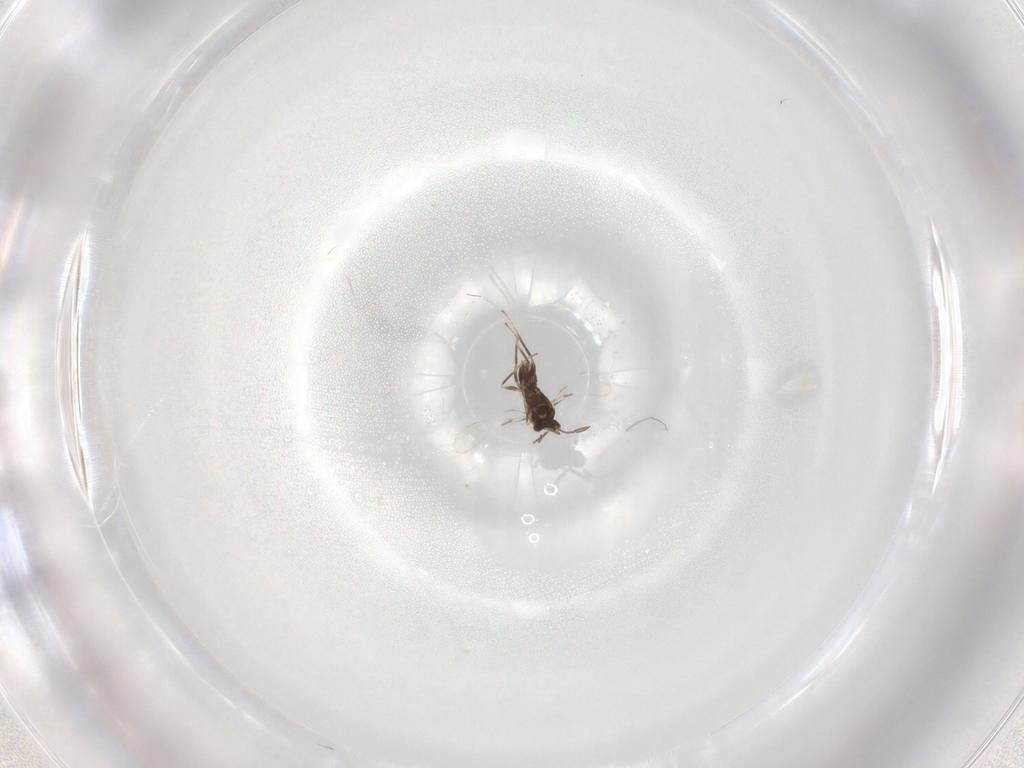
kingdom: Animalia
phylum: Arthropoda
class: Insecta
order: Hymenoptera
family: Mymaridae
